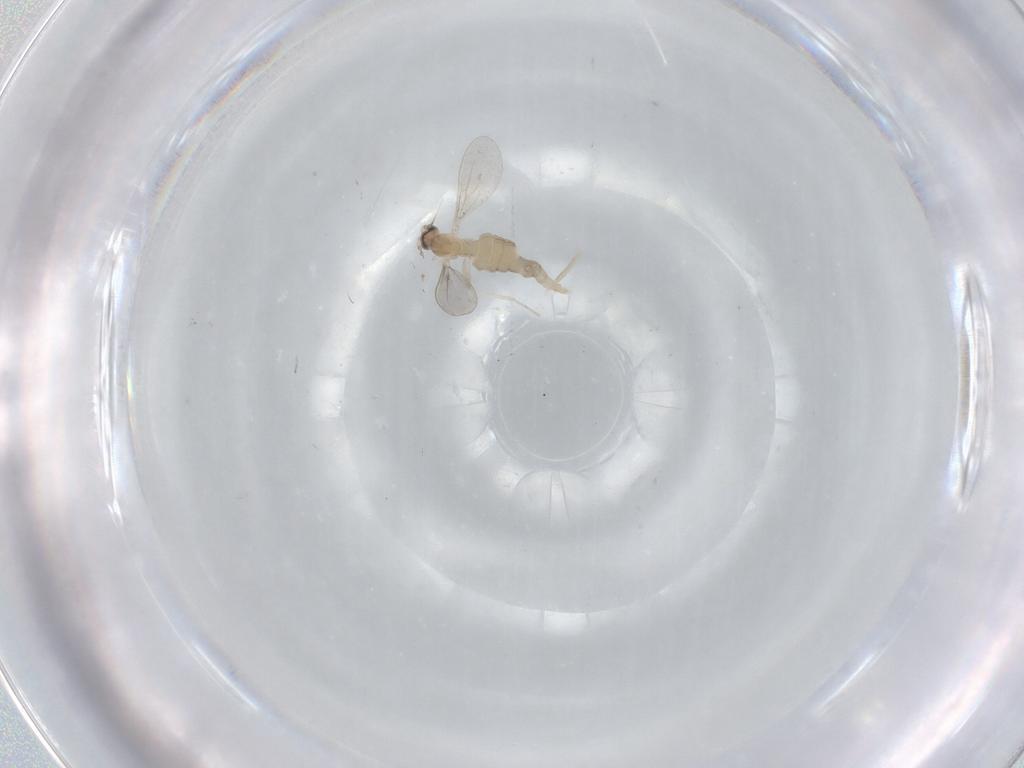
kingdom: Animalia
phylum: Arthropoda
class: Insecta
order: Diptera
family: Cecidomyiidae
